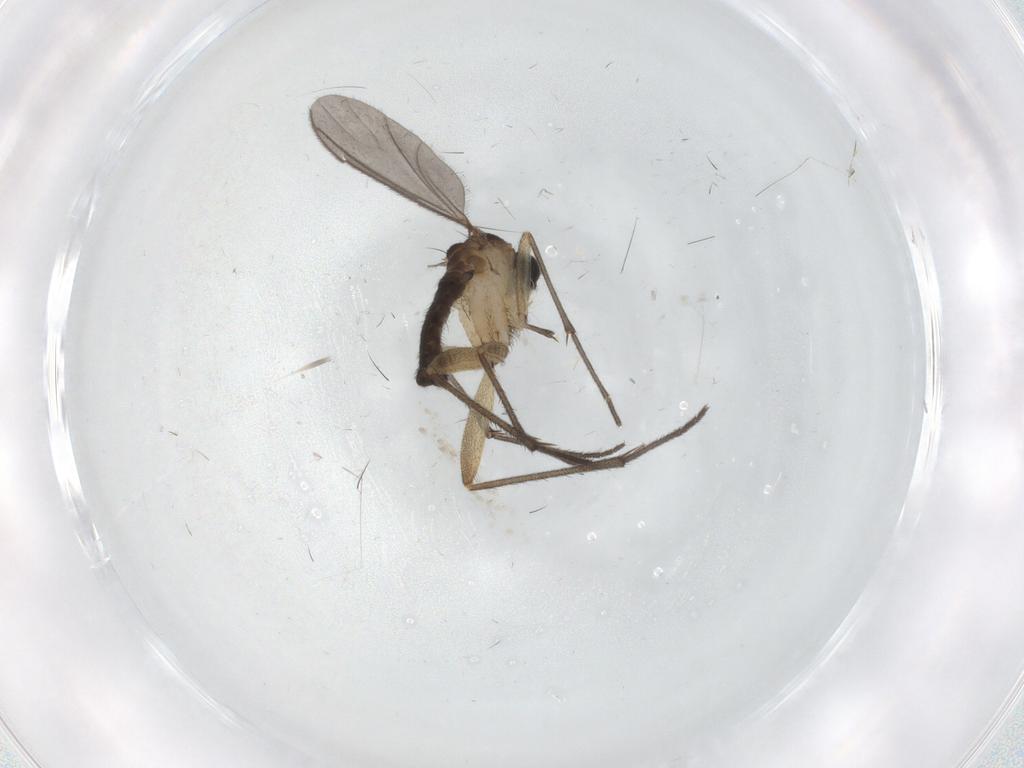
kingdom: Animalia
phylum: Arthropoda
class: Insecta
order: Diptera
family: Sciaridae
